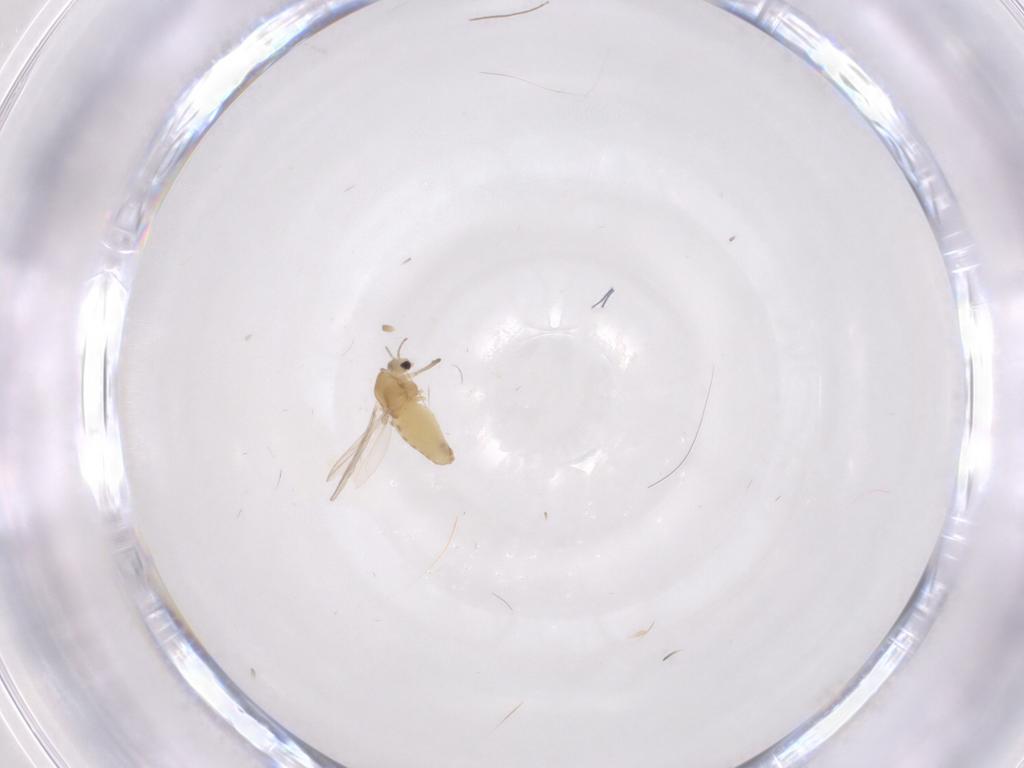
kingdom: Animalia
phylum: Arthropoda
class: Insecta
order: Diptera
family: Chironomidae
